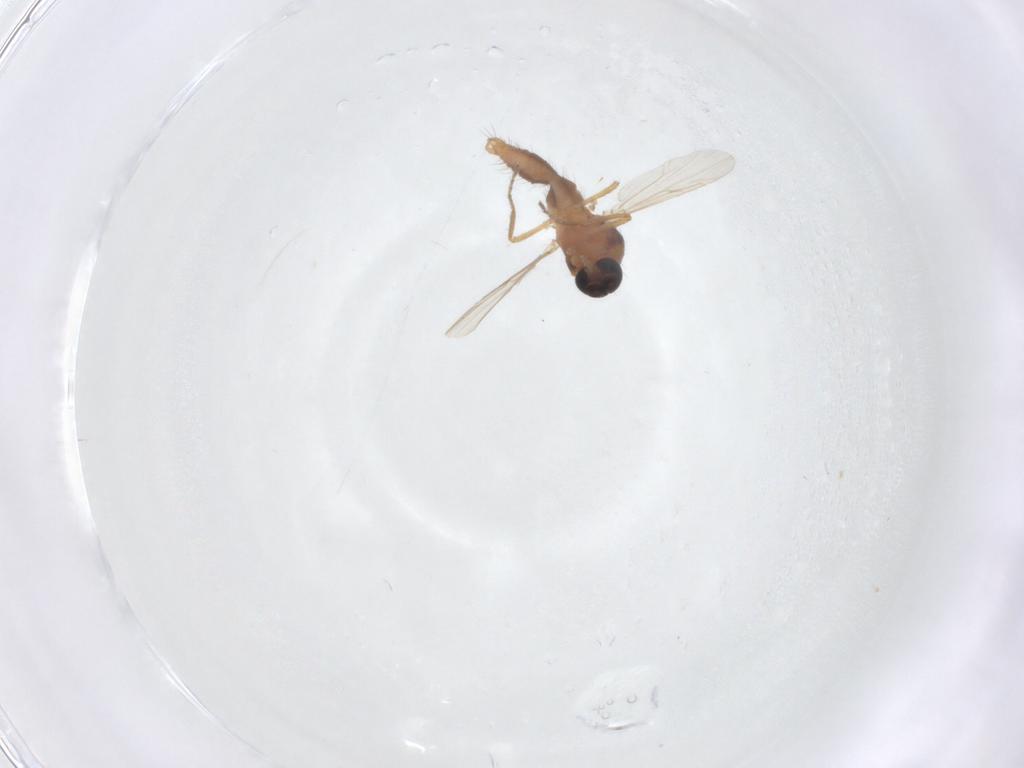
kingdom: Animalia
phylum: Arthropoda
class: Insecta
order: Diptera
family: Ceratopogonidae
